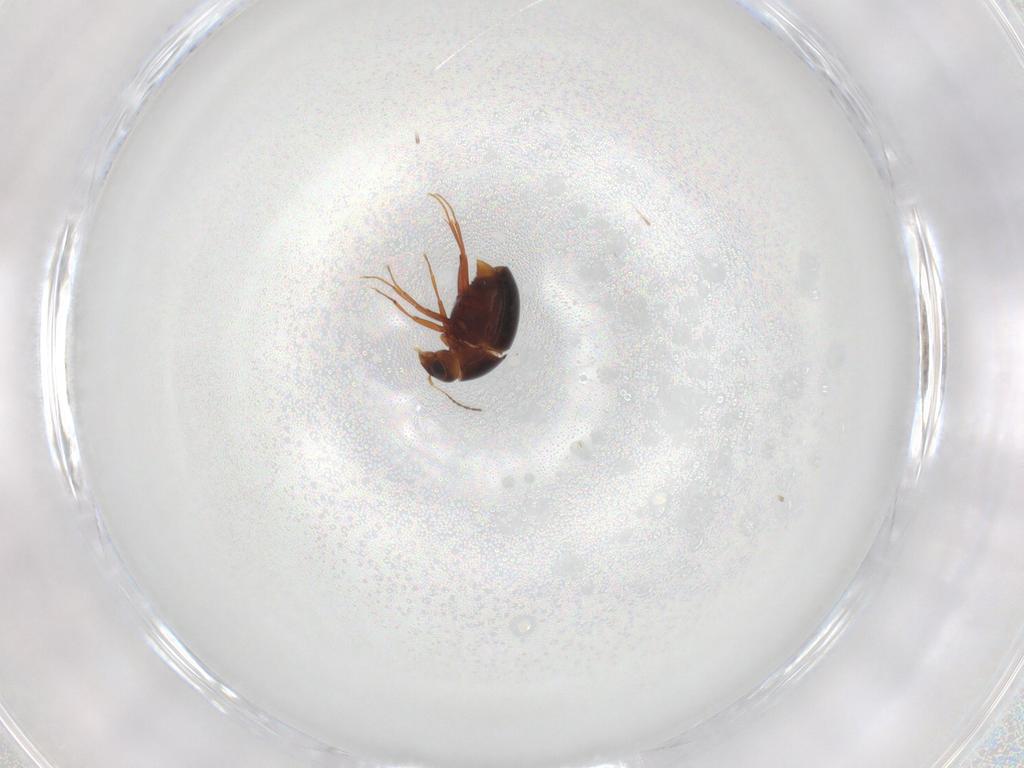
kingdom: Animalia
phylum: Arthropoda
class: Insecta
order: Coleoptera
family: Staphylinidae
